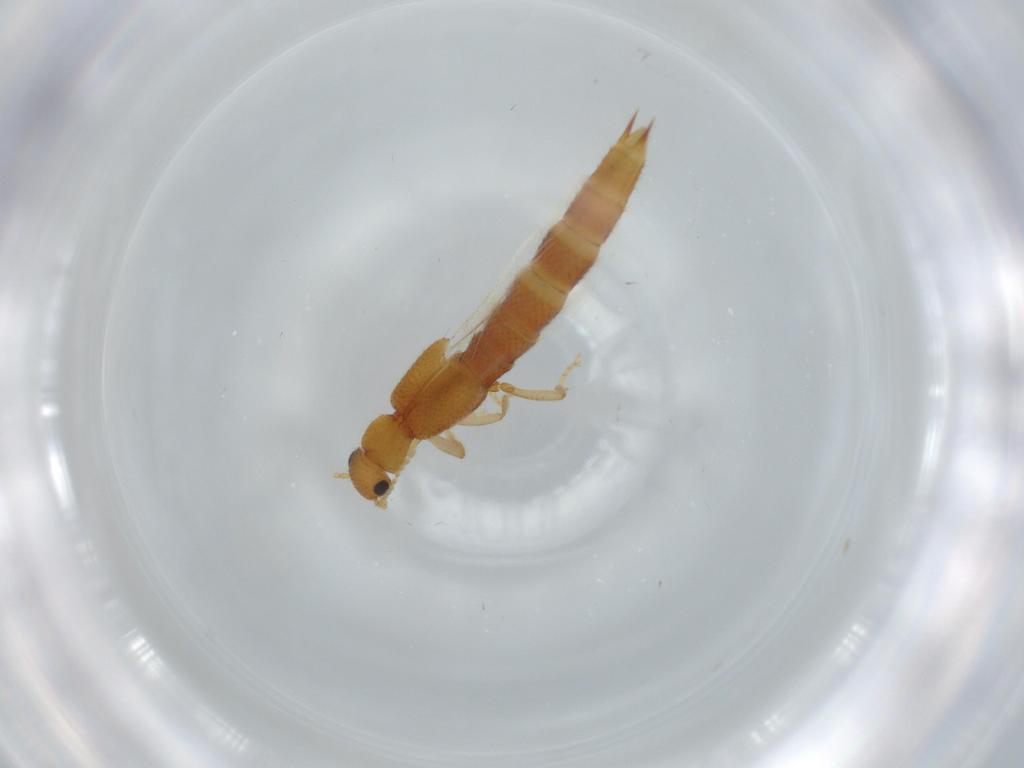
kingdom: Animalia
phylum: Arthropoda
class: Insecta
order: Coleoptera
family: Staphylinidae
